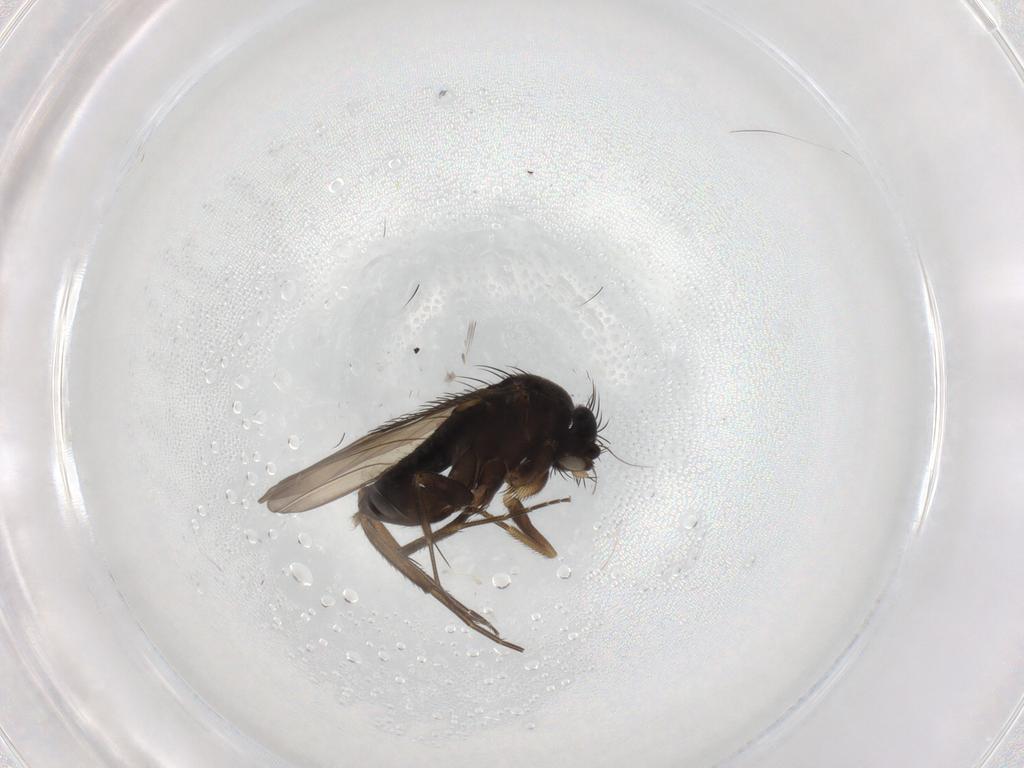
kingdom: Animalia
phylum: Arthropoda
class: Insecta
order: Diptera
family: Phoridae
